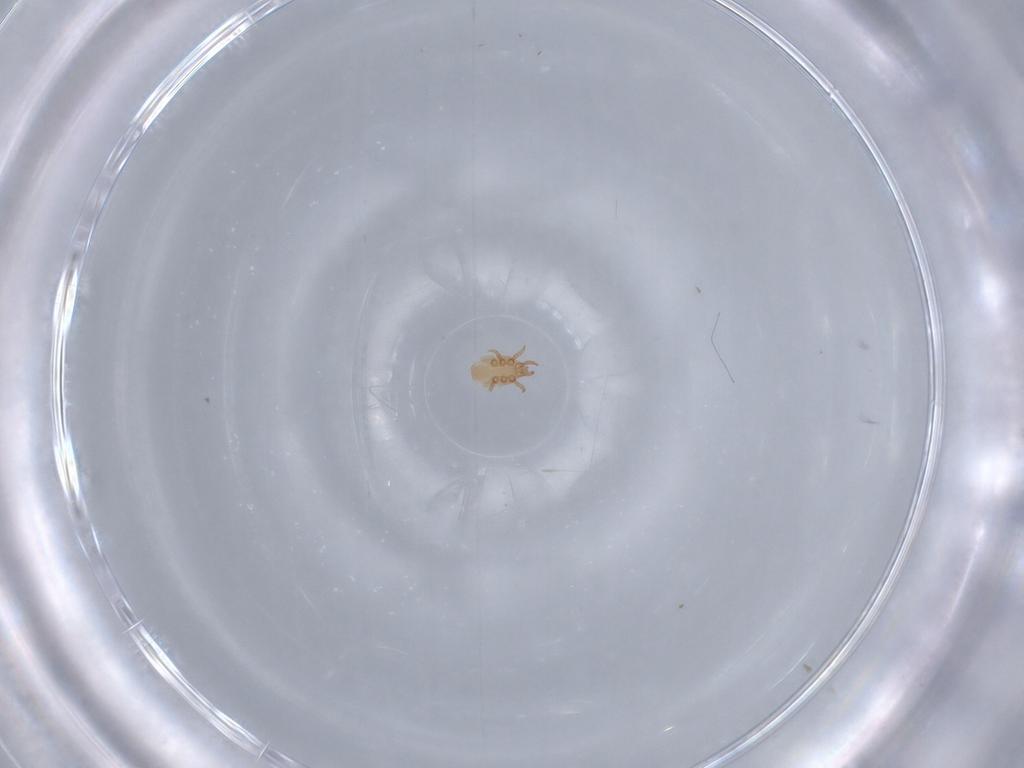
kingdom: Animalia
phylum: Arthropoda
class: Arachnida
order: Mesostigmata
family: Dinychidae
